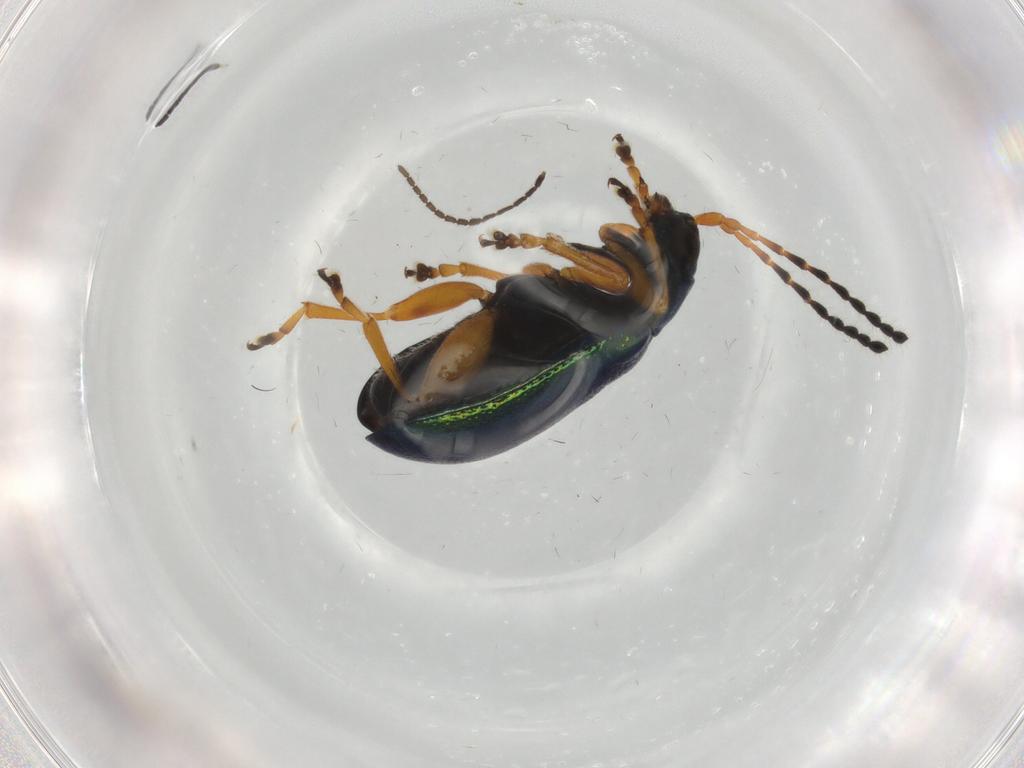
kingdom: Animalia
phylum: Arthropoda
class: Insecta
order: Coleoptera
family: Chrysomelidae
